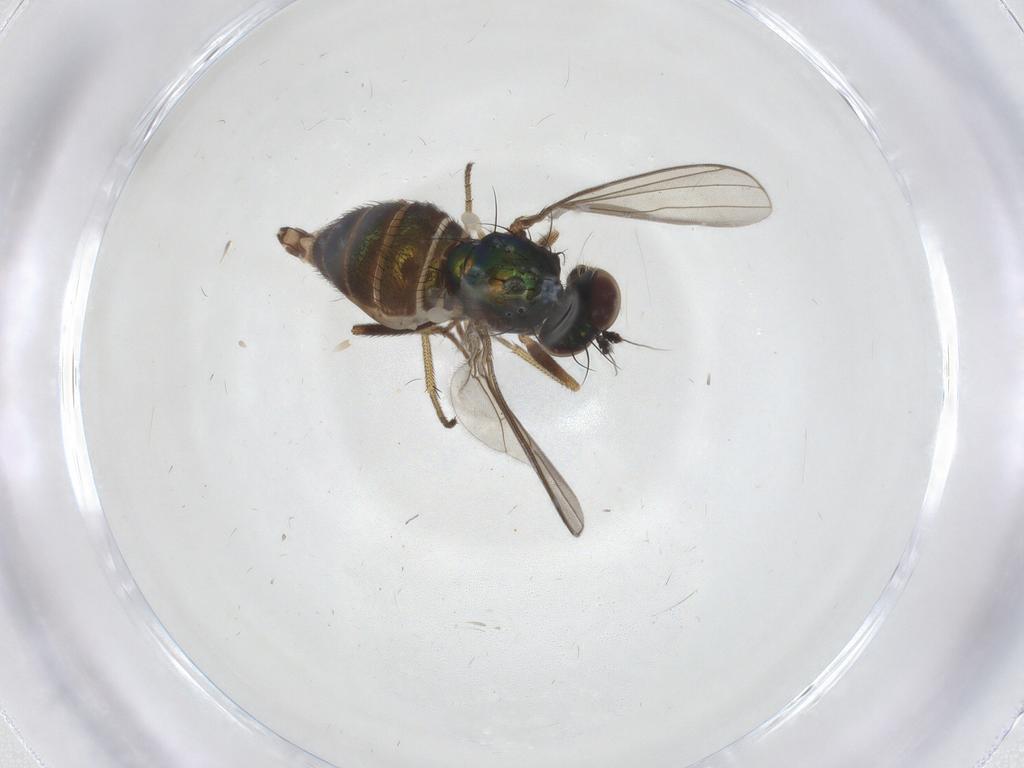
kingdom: Animalia
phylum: Arthropoda
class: Insecta
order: Diptera
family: Dolichopodidae
